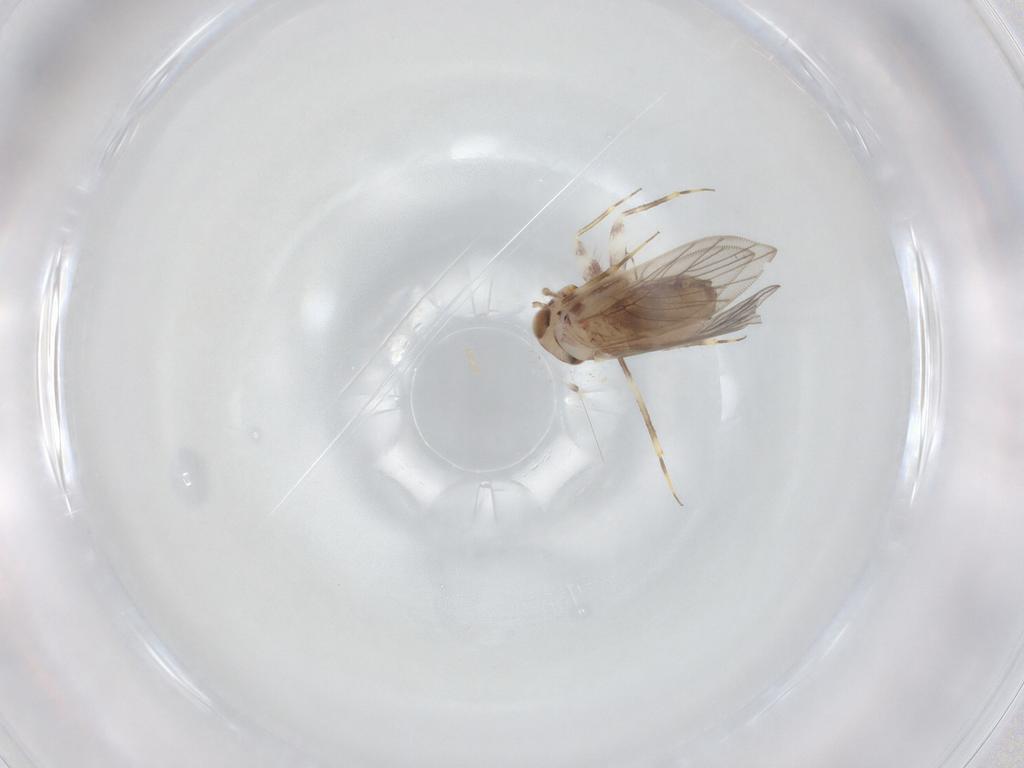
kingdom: Animalia
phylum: Arthropoda
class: Insecta
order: Psocodea
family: Lepidopsocidae
